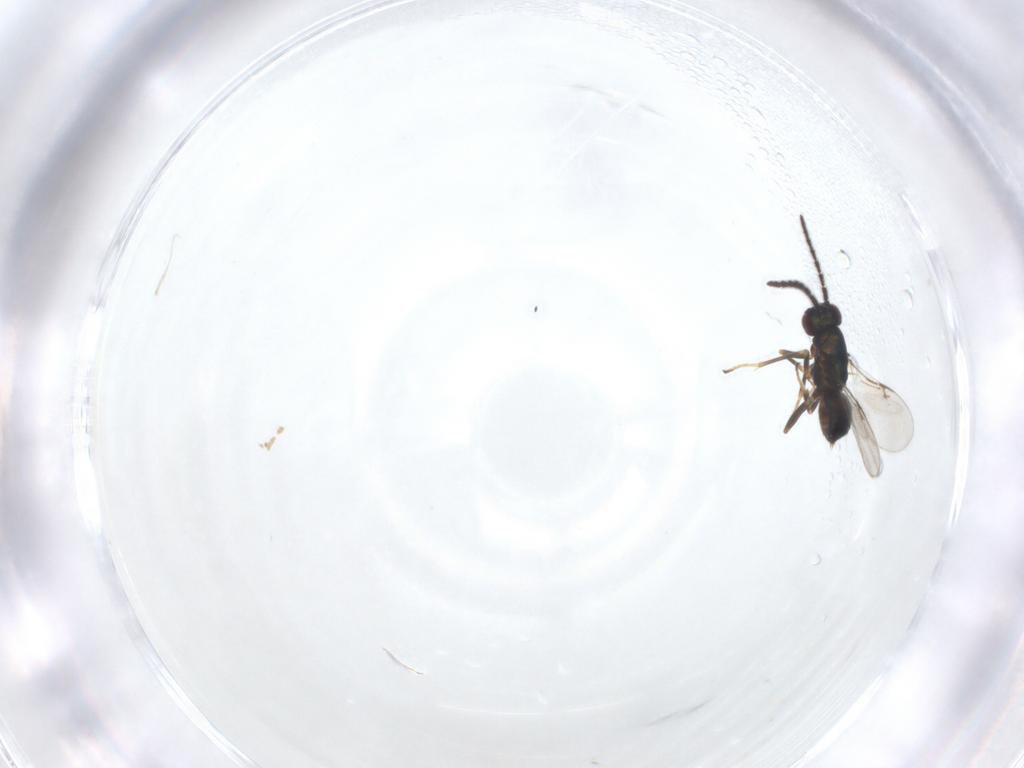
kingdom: Animalia
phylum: Arthropoda
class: Insecta
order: Hymenoptera
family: Encyrtidae
